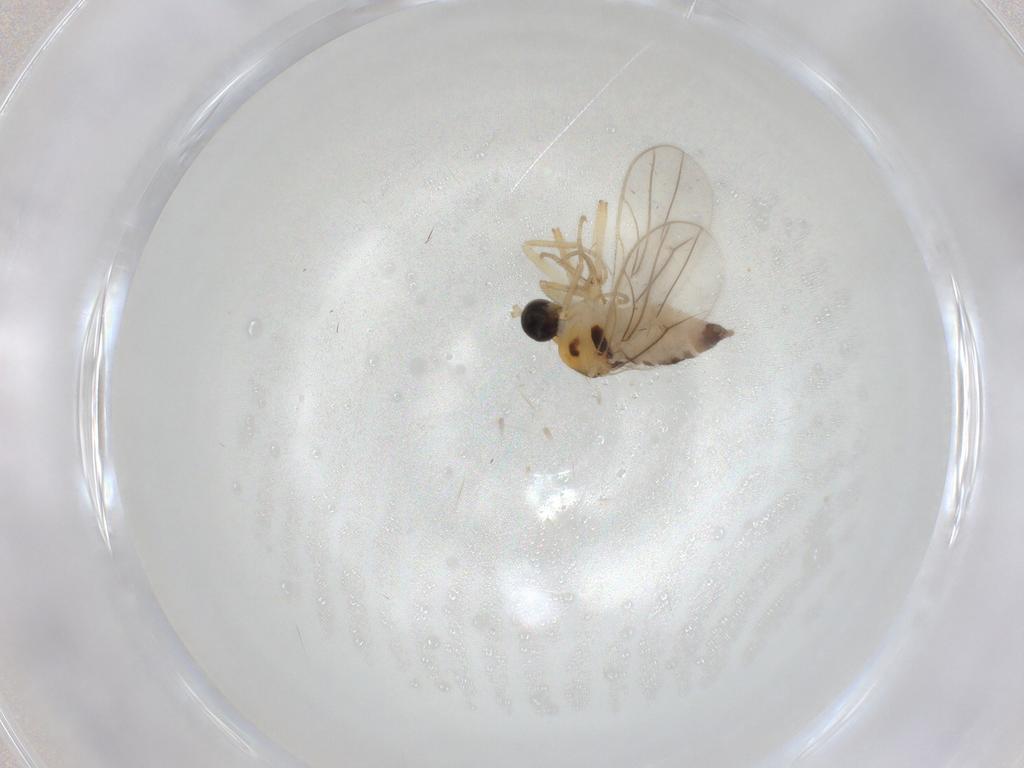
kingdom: Animalia
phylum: Arthropoda
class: Insecta
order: Diptera
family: Hybotidae
